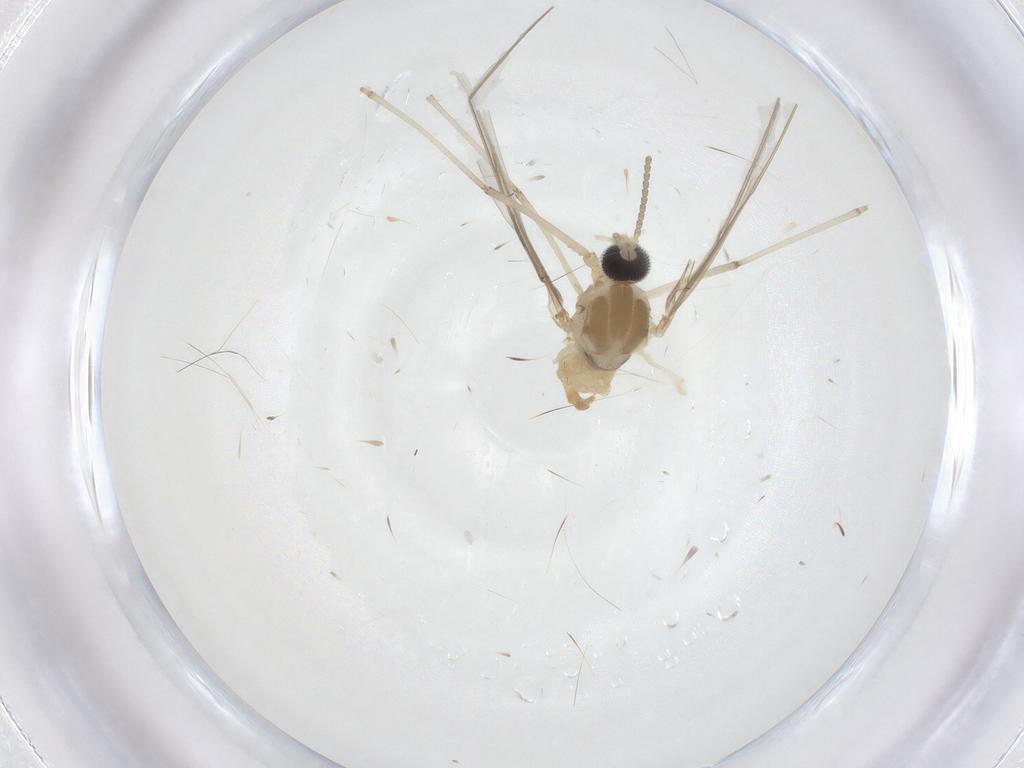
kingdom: Animalia
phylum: Arthropoda
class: Insecta
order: Diptera
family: Cecidomyiidae
